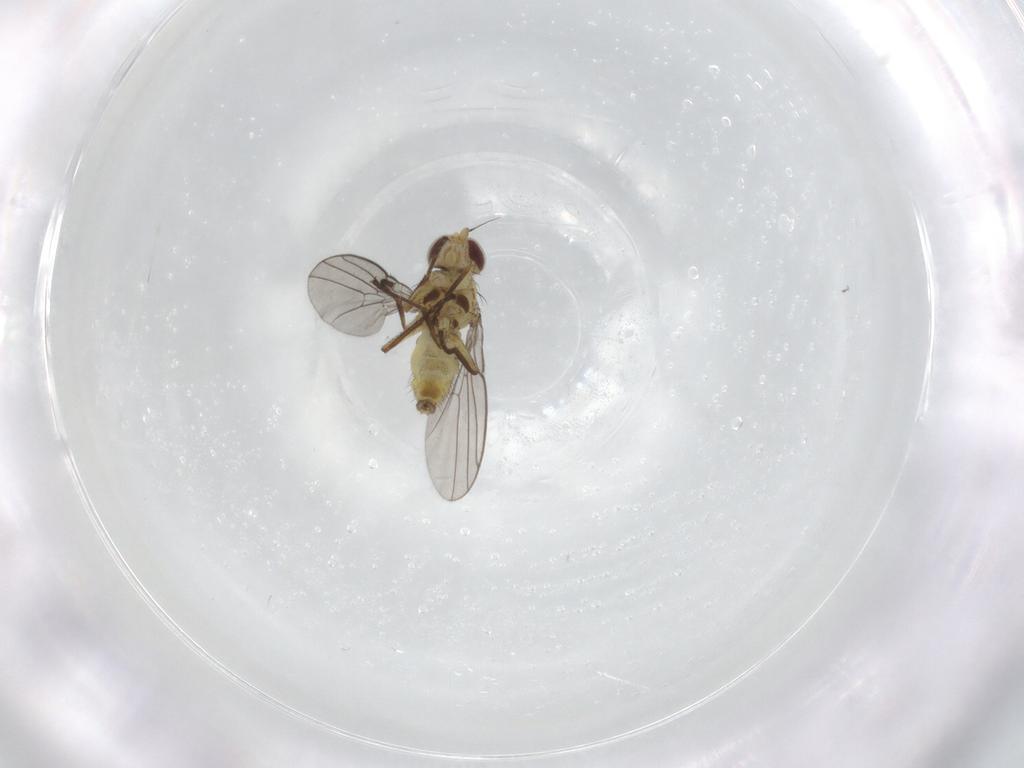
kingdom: Animalia
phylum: Arthropoda
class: Insecta
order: Diptera
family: Agromyzidae
